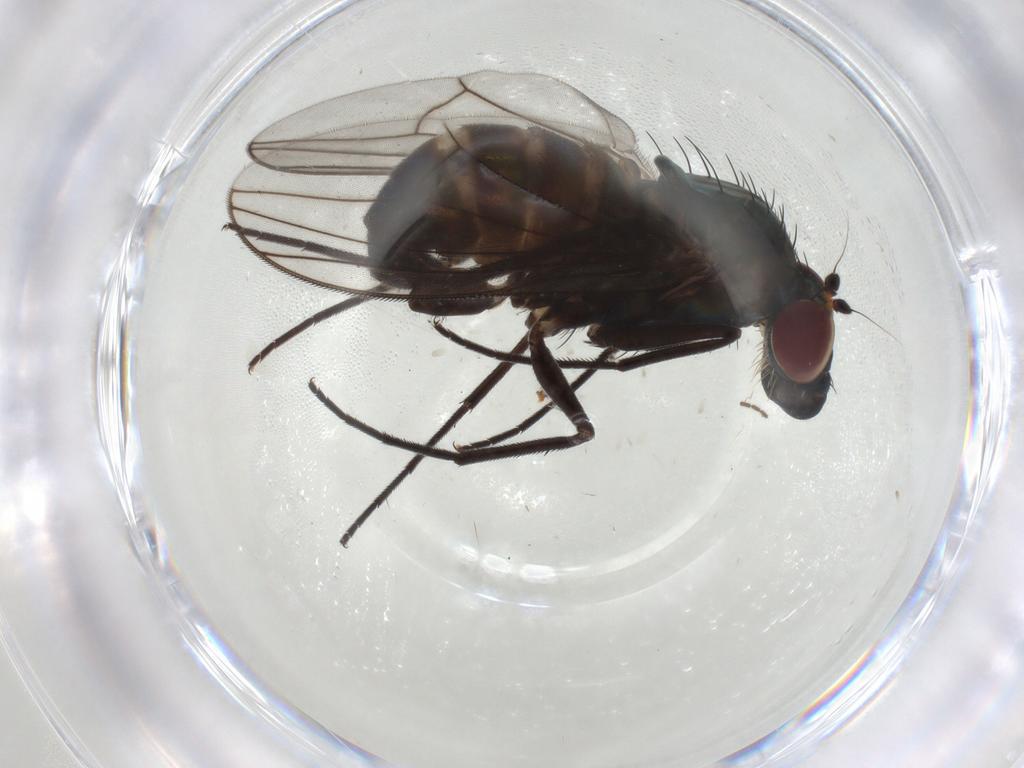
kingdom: Animalia
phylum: Arthropoda
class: Insecta
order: Diptera
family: Dolichopodidae
